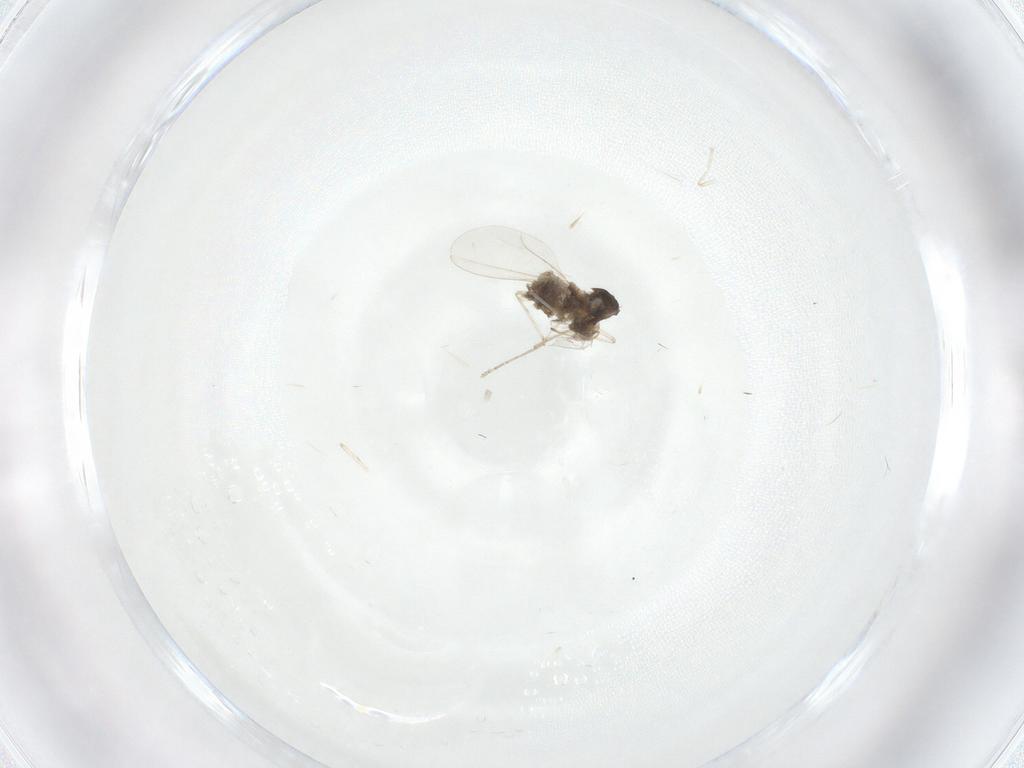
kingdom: Animalia
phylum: Arthropoda
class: Insecta
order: Diptera
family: Cecidomyiidae
